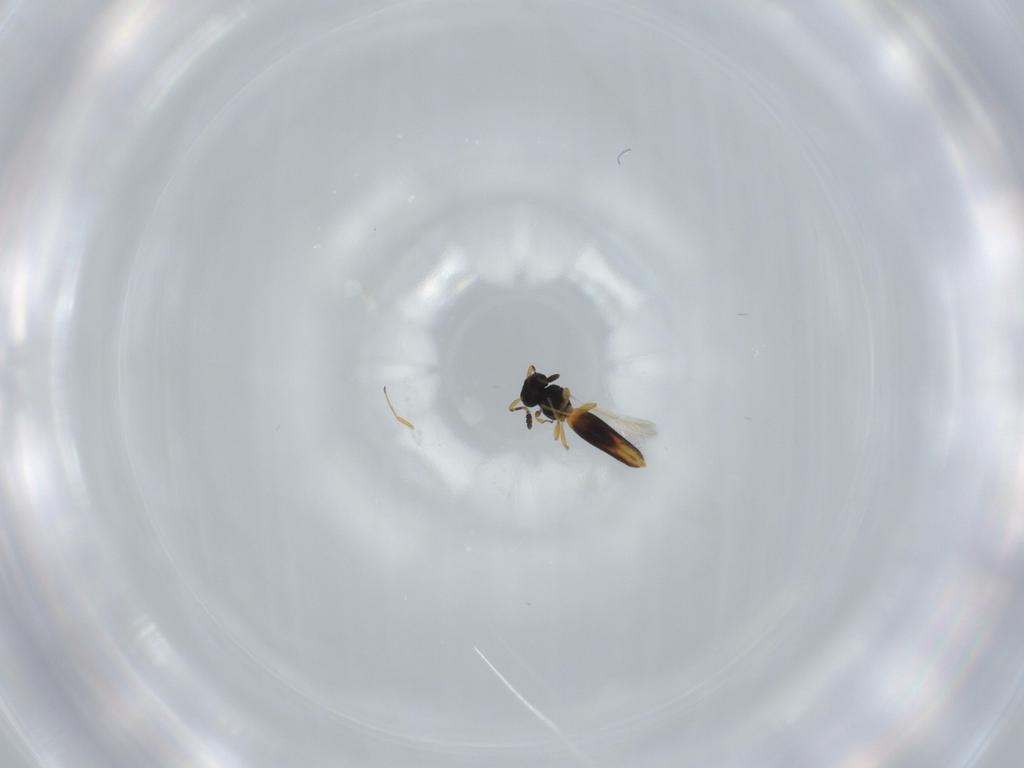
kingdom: Animalia
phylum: Arthropoda
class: Insecta
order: Hymenoptera
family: Scelionidae
